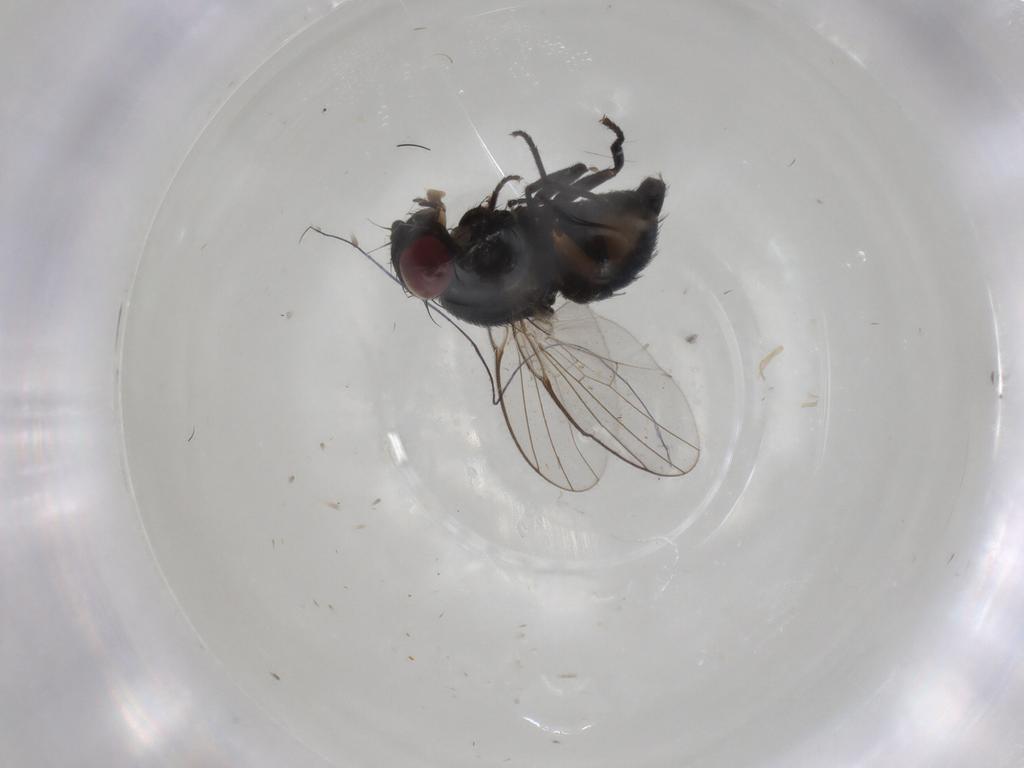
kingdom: Animalia
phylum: Arthropoda
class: Insecta
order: Diptera
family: Agromyzidae
